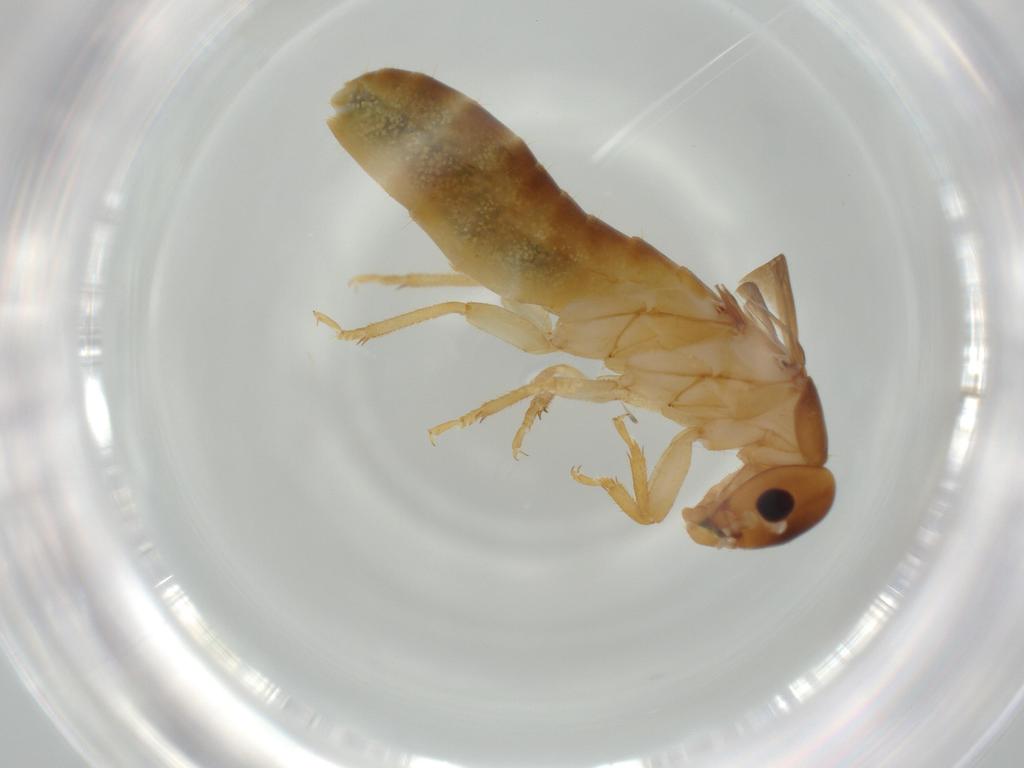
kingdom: Animalia
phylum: Arthropoda
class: Insecta
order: Blattodea
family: Kalotermitidae
